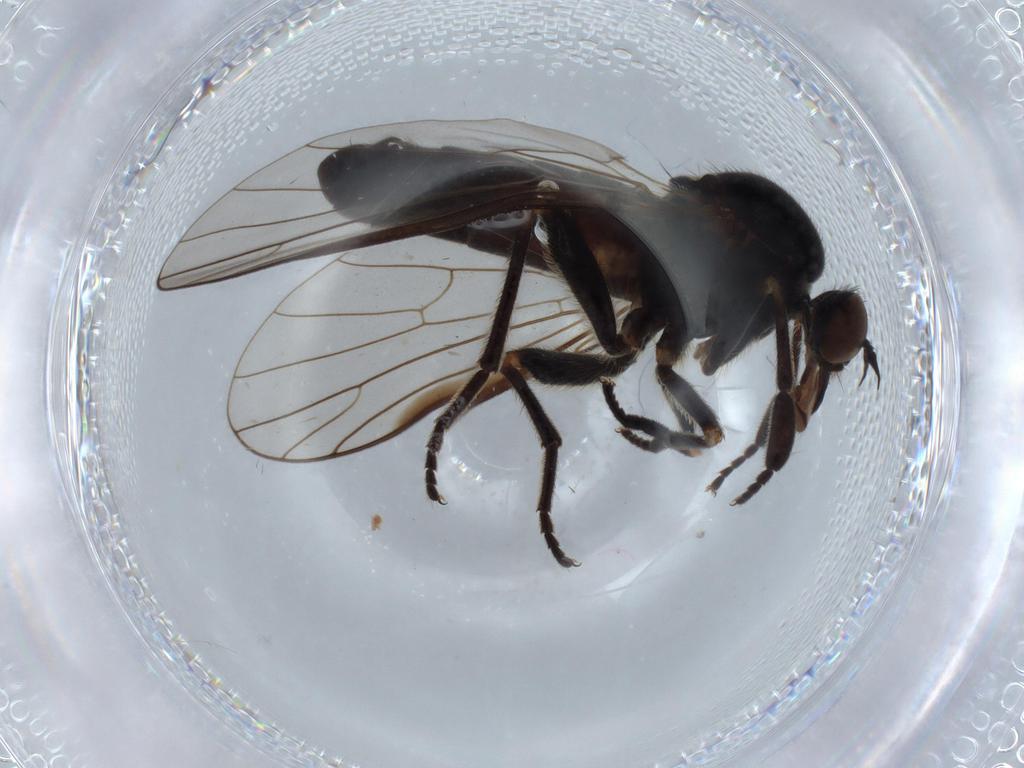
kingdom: Animalia
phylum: Arthropoda
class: Insecta
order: Diptera
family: Empididae
